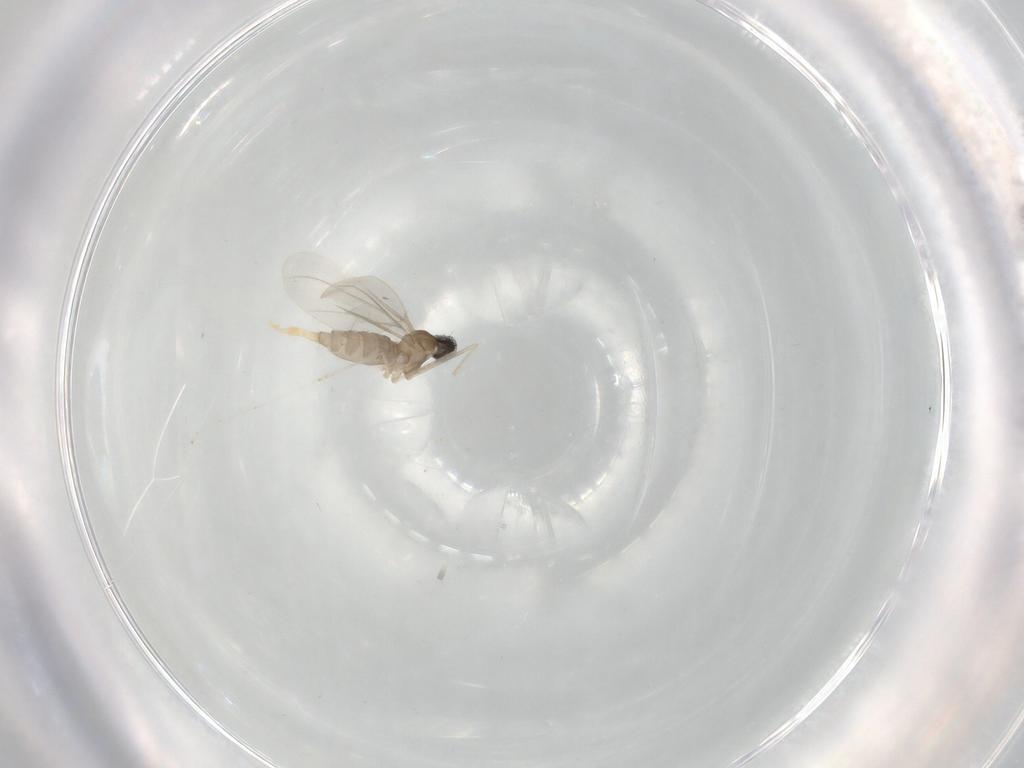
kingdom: Animalia
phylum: Arthropoda
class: Insecta
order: Diptera
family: Cecidomyiidae
